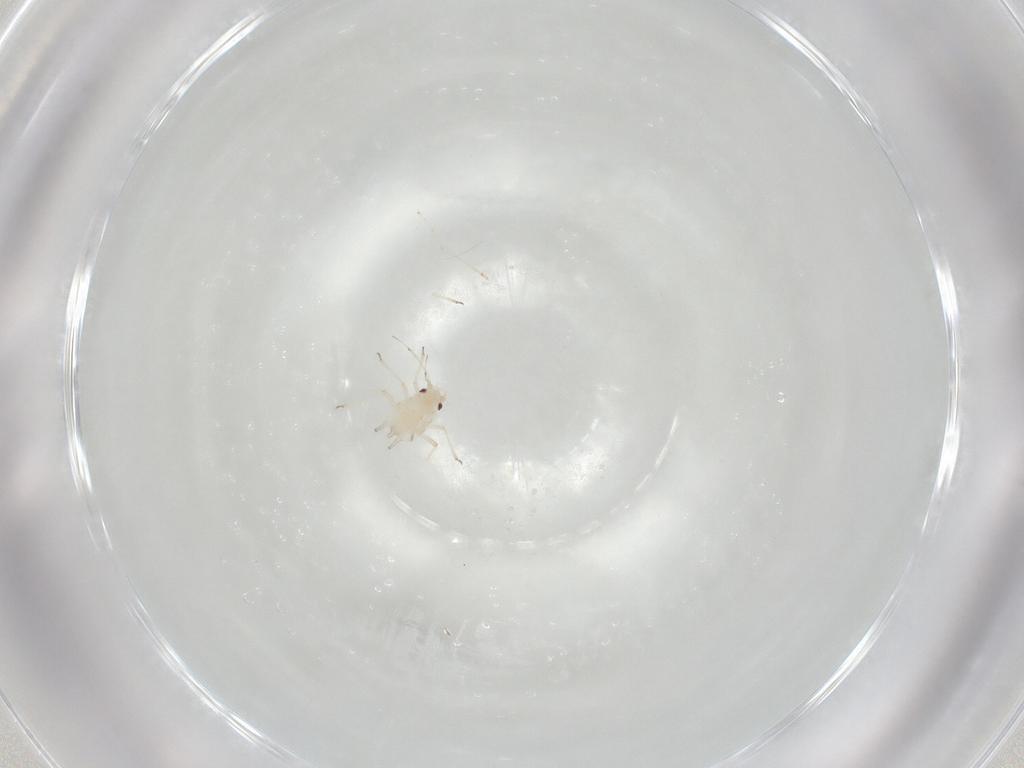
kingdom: Animalia
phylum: Arthropoda
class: Insecta
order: Hemiptera
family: Aphididae
